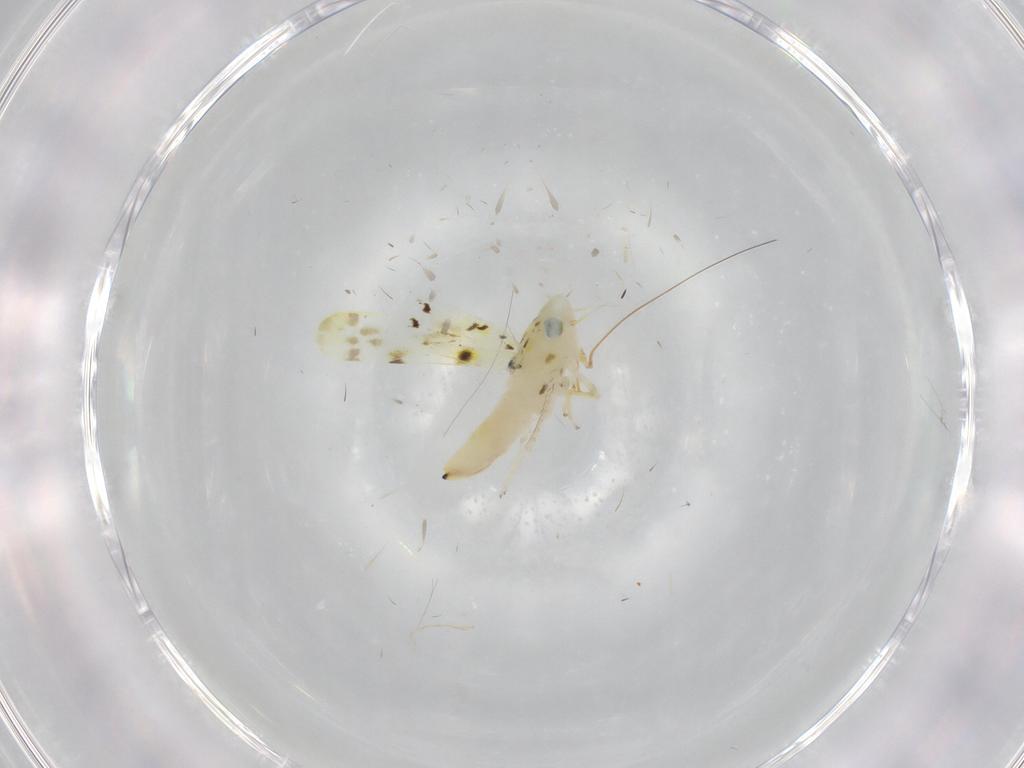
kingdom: Animalia
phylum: Arthropoda
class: Insecta
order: Hemiptera
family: Cicadellidae
